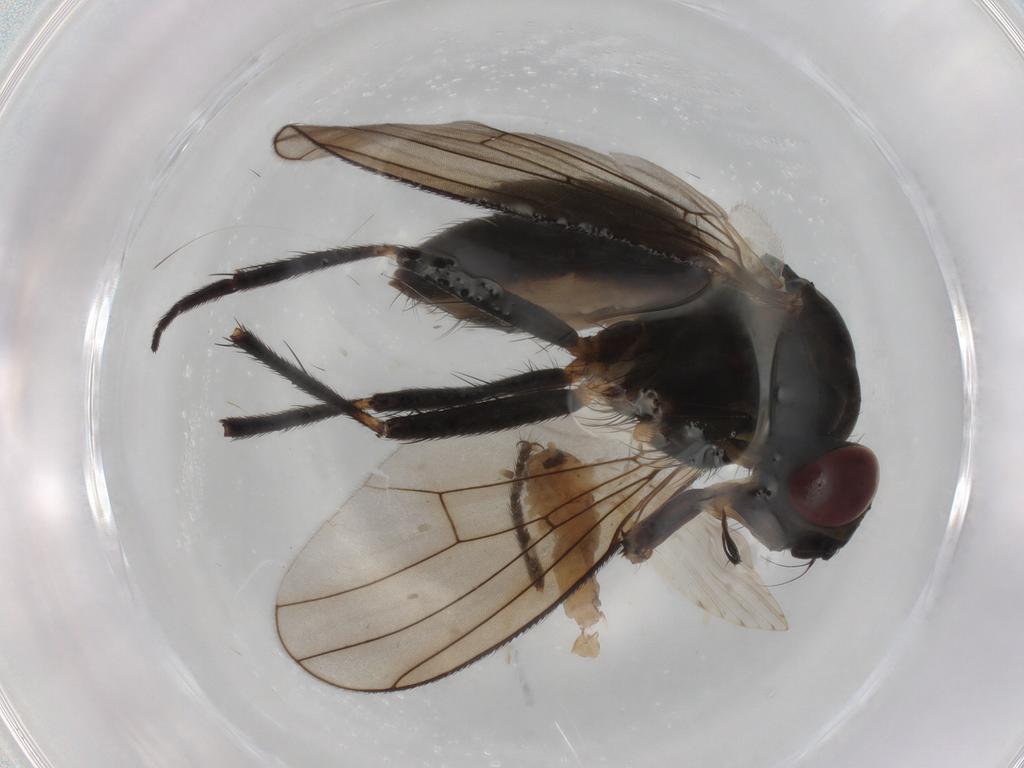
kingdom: Animalia
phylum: Arthropoda
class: Insecta
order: Diptera
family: Muscidae
